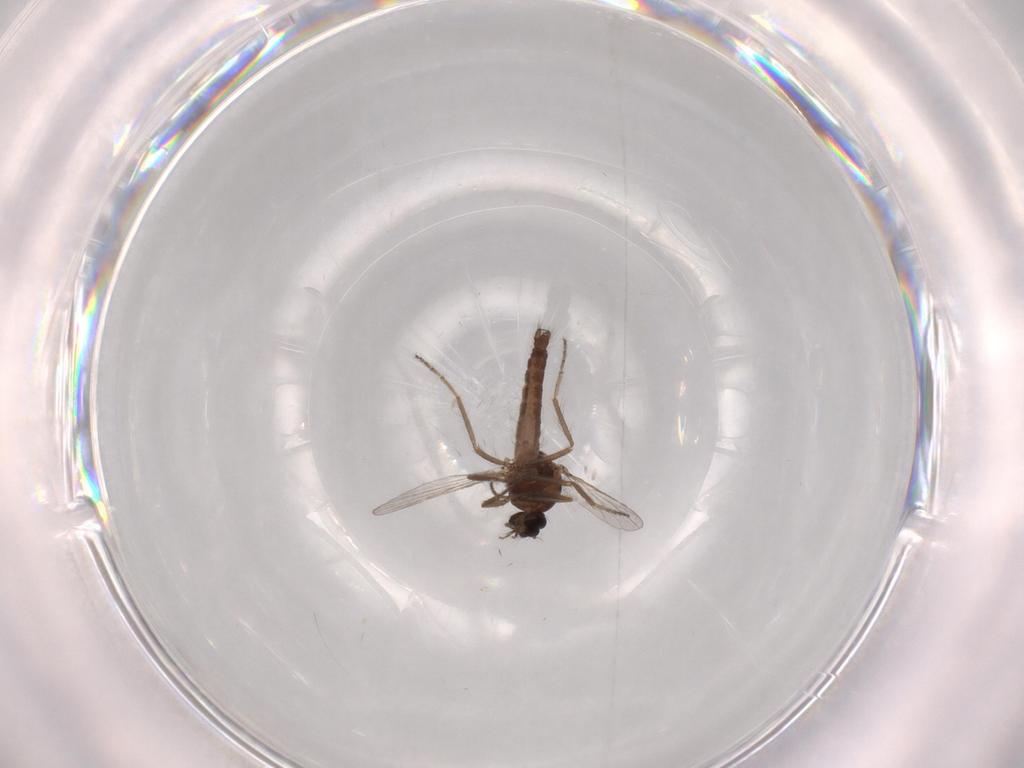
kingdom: Animalia
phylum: Arthropoda
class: Insecta
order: Diptera
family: Ceratopogonidae
